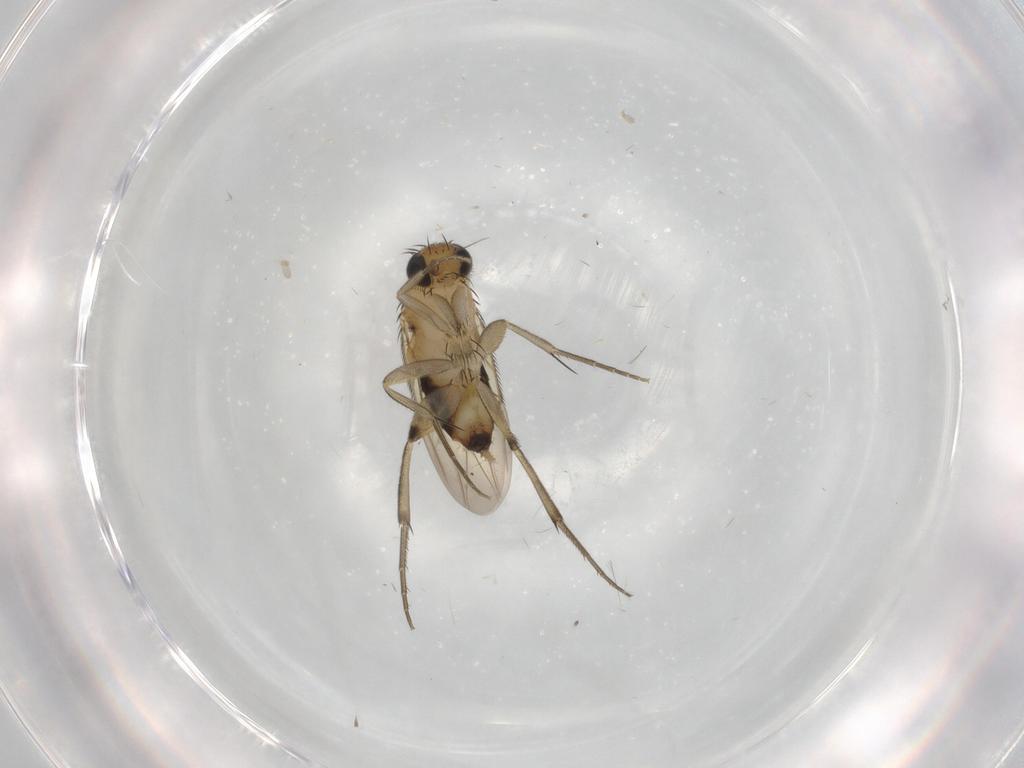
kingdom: Animalia
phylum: Arthropoda
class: Insecta
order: Diptera
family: Phoridae
